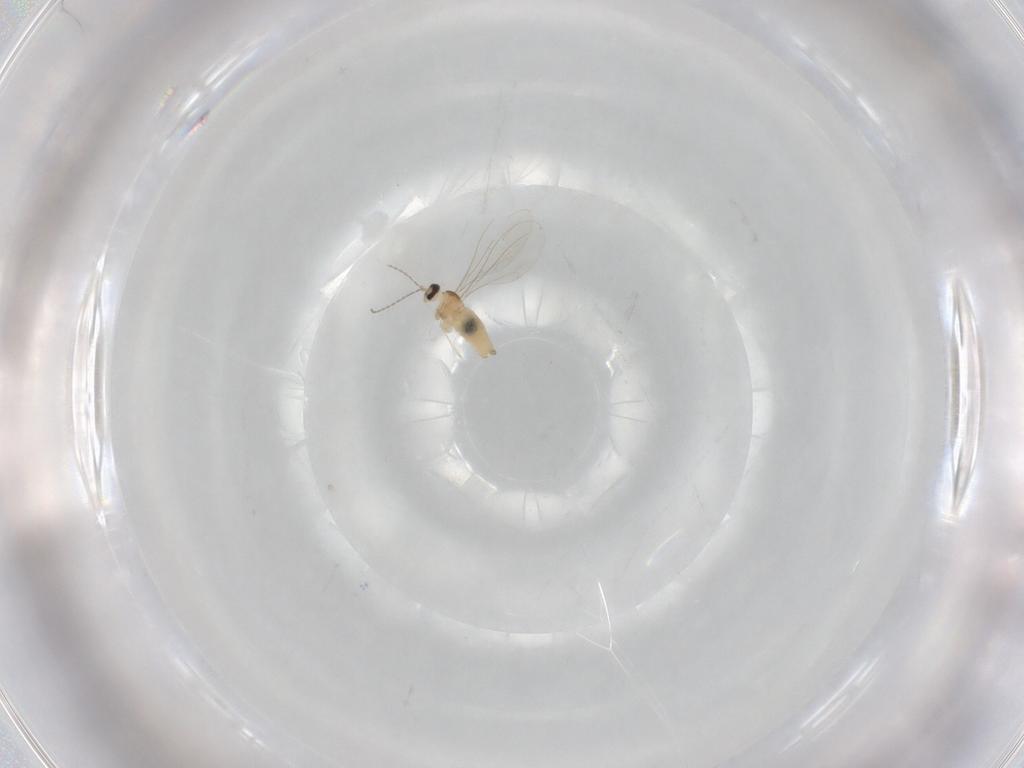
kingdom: Animalia
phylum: Arthropoda
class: Insecta
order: Diptera
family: Cecidomyiidae
